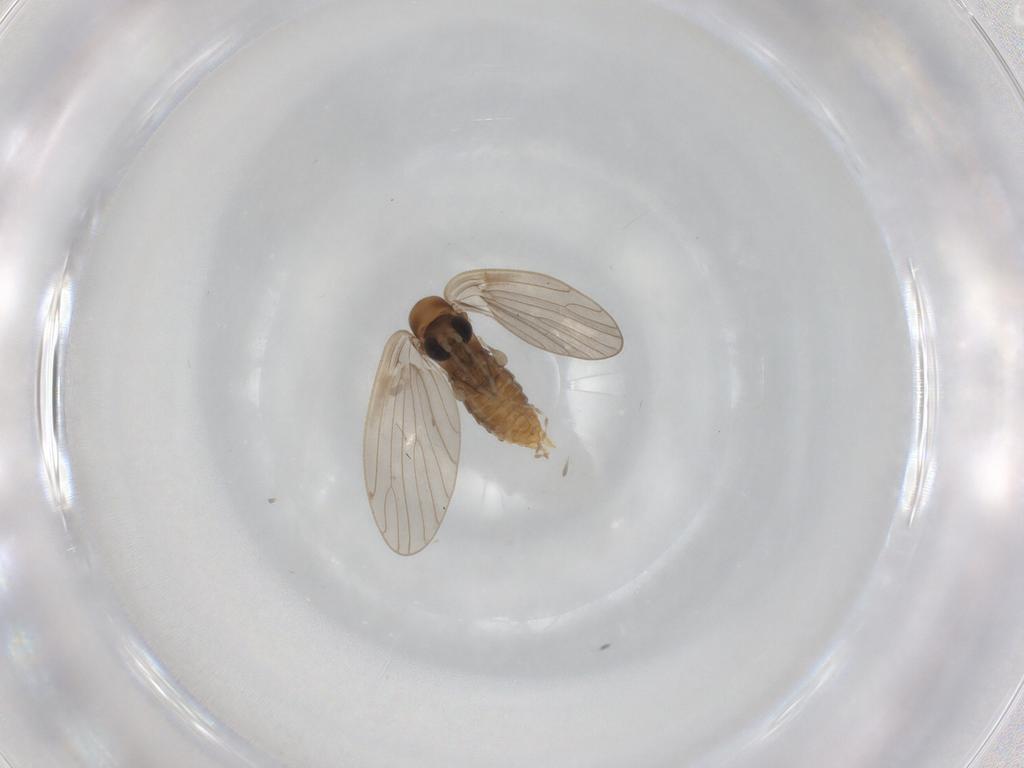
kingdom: Animalia
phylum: Arthropoda
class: Insecta
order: Diptera
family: Psychodidae
